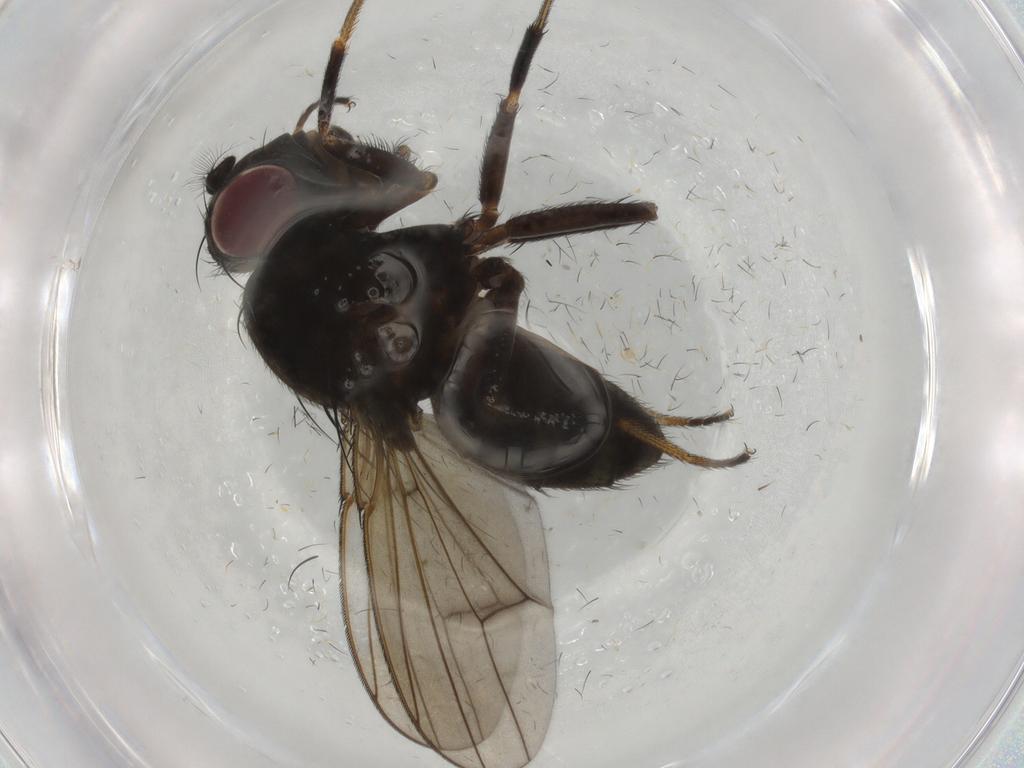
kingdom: Animalia
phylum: Arthropoda
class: Insecta
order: Diptera
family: Ephydridae
